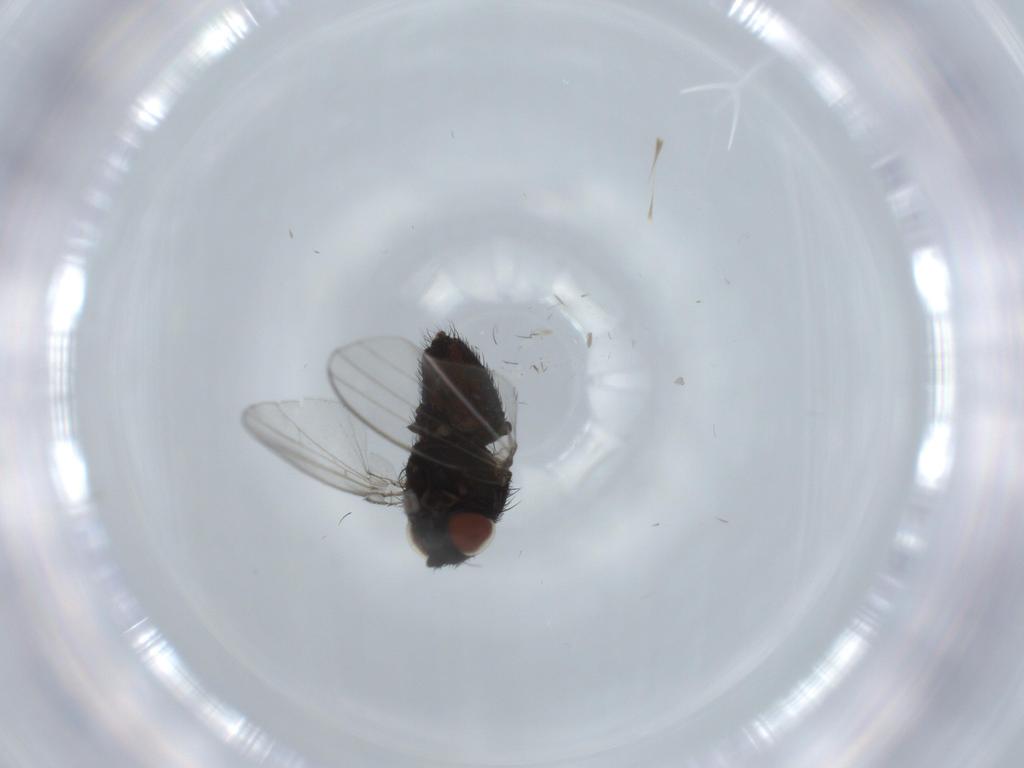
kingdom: Animalia
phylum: Arthropoda
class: Insecta
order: Diptera
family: Milichiidae
